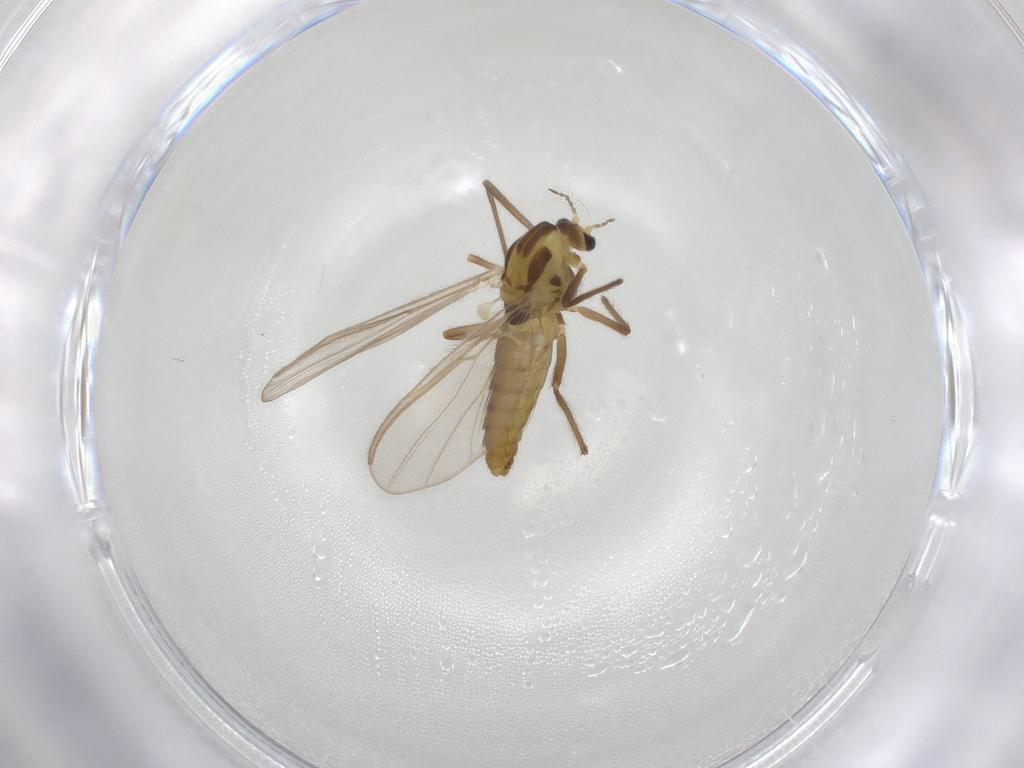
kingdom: Animalia
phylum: Arthropoda
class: Insecta
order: Diptera
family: Chironomidae
